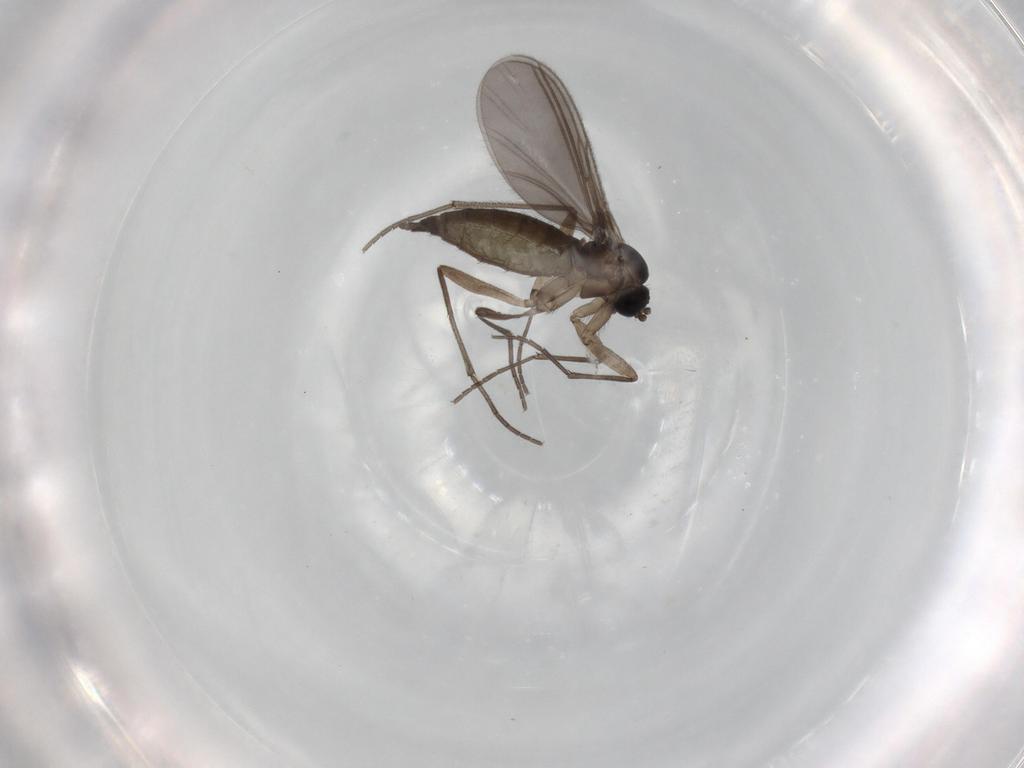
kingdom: Animalia
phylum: Arthropoda
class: Insecta
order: Diptera
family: Sciaridae
